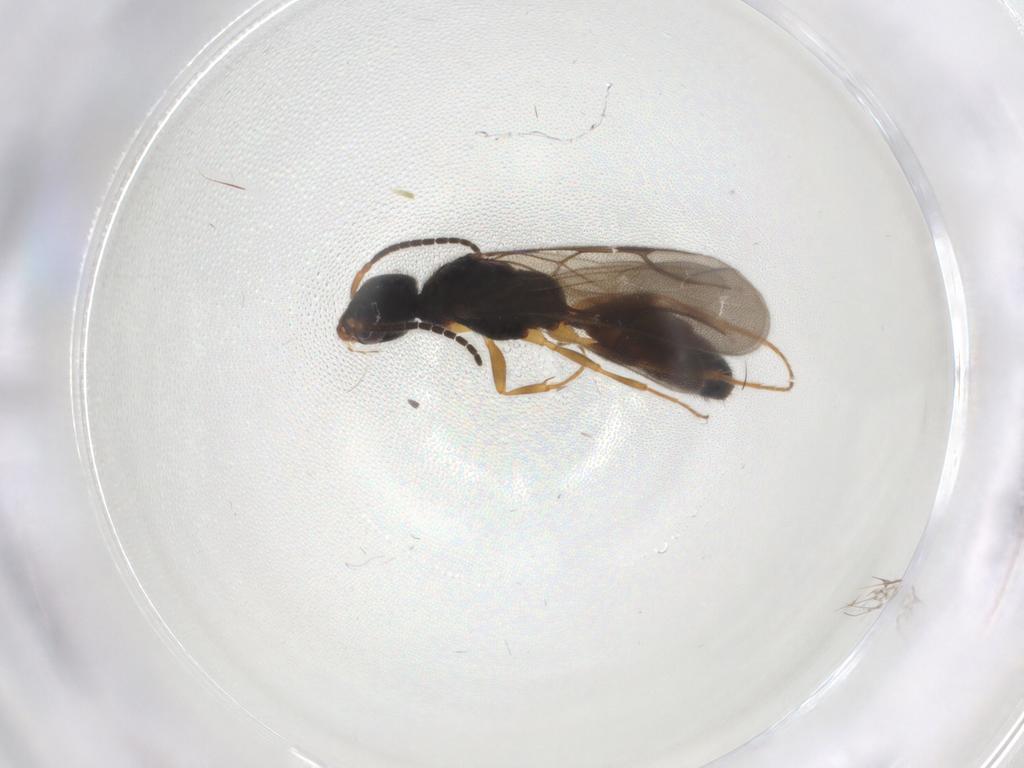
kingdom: Animalia
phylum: Arthropoda
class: Insecta
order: Hymenoptera
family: Bethylidae
